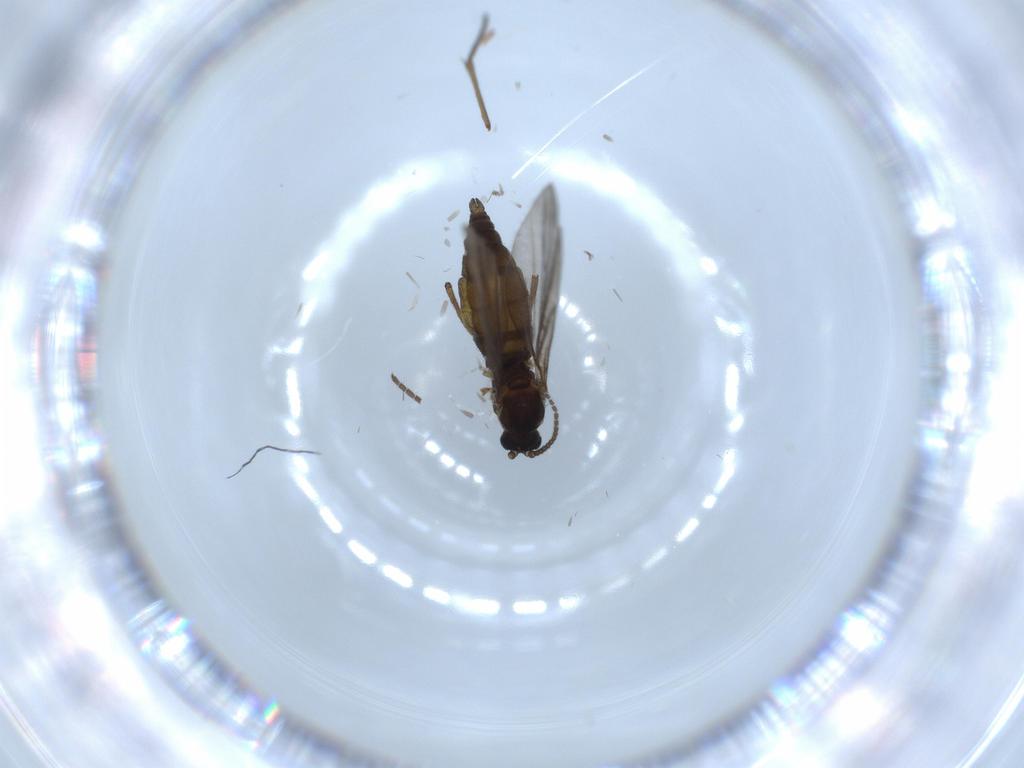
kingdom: Animalia
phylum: Arthropoda
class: Insecta
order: Diptera
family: Sciaridae
